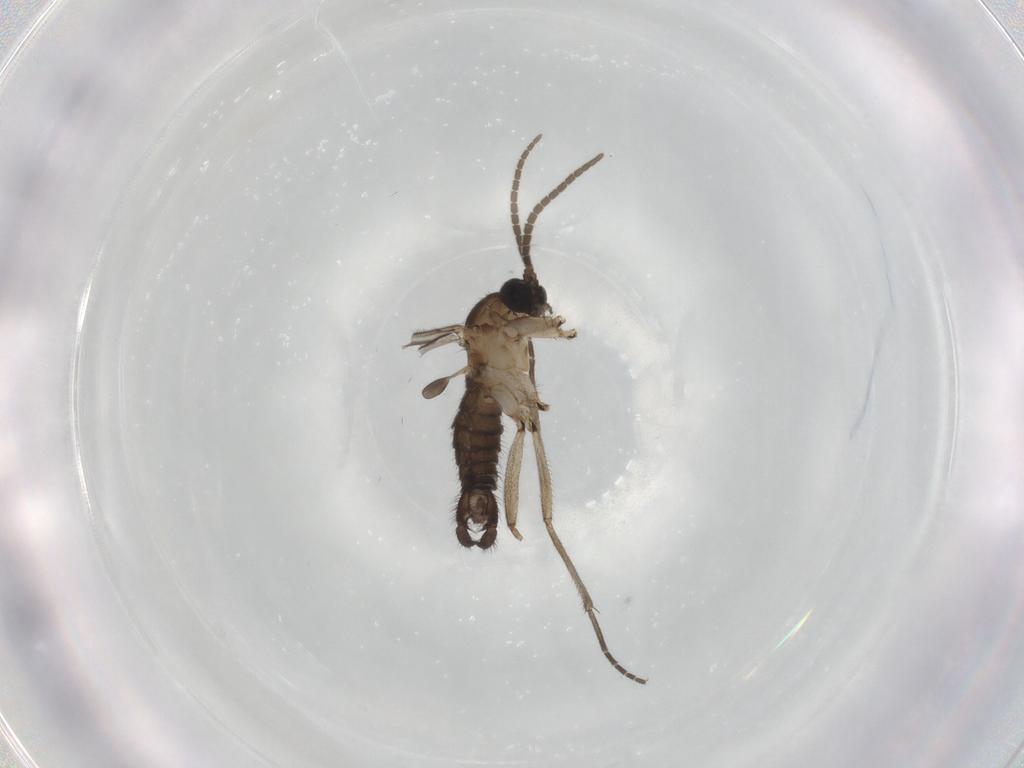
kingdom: Animalia
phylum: Arthropoda
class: Insecta
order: Diptera
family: Sciaridae
